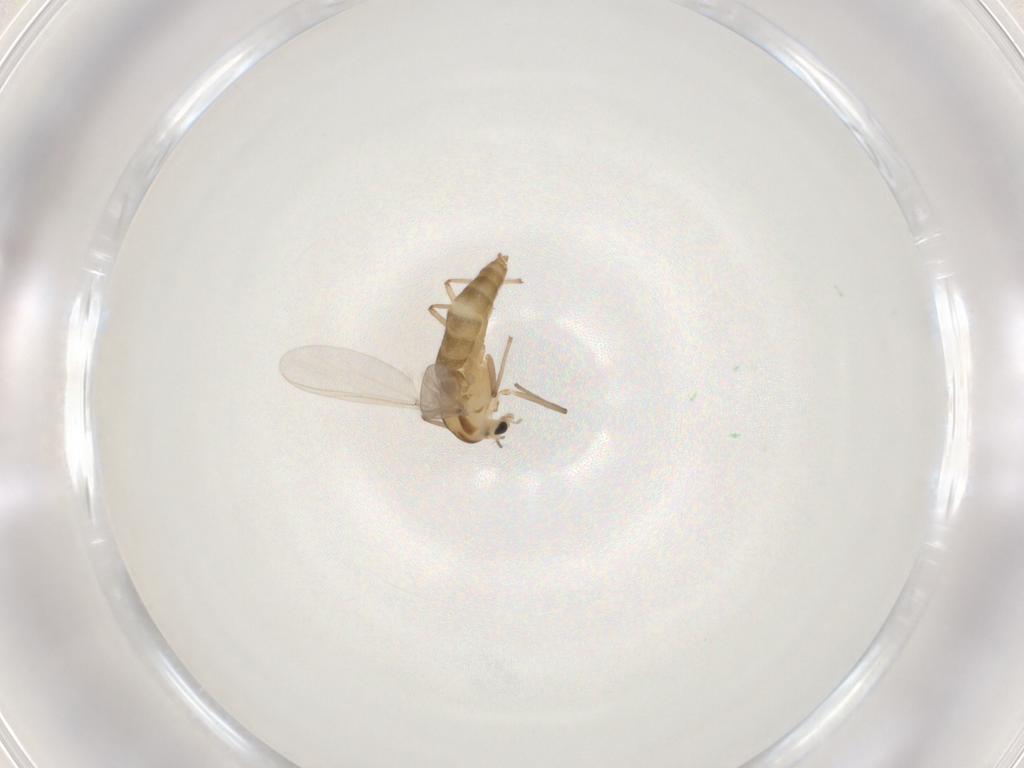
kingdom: Animalia
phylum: Arthropoda
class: Insecta
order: Diptera
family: Chironomidae
